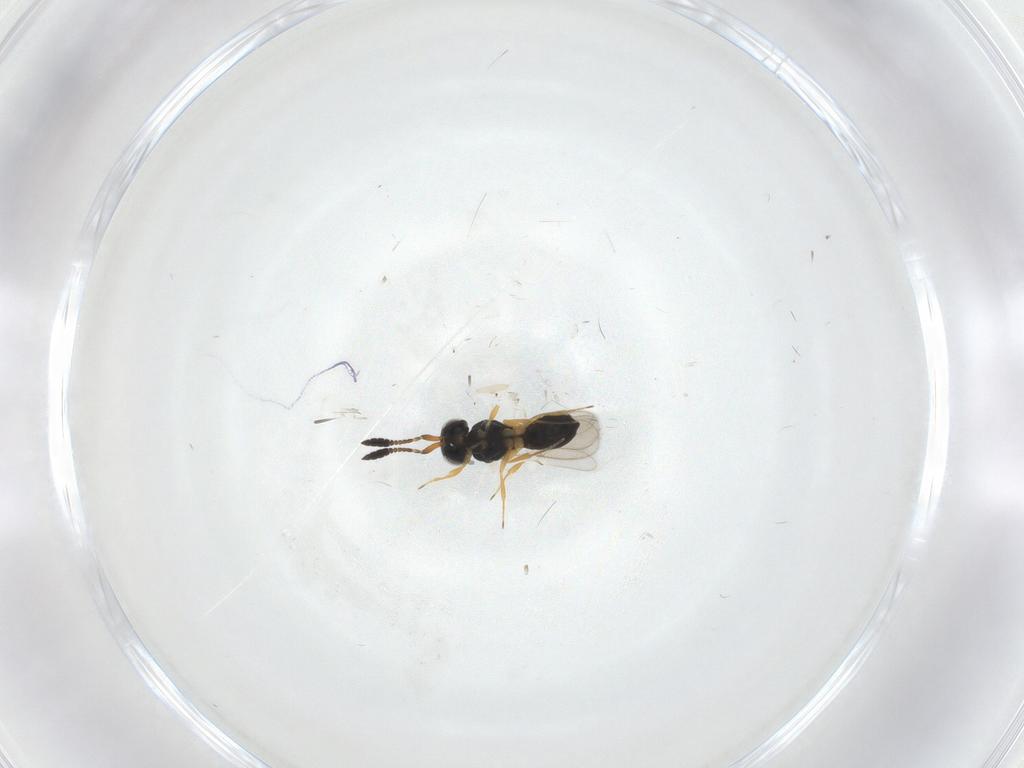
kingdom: Animalia
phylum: Arthropoda
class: Insecta
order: Hymenoptera
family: Scelionidae
